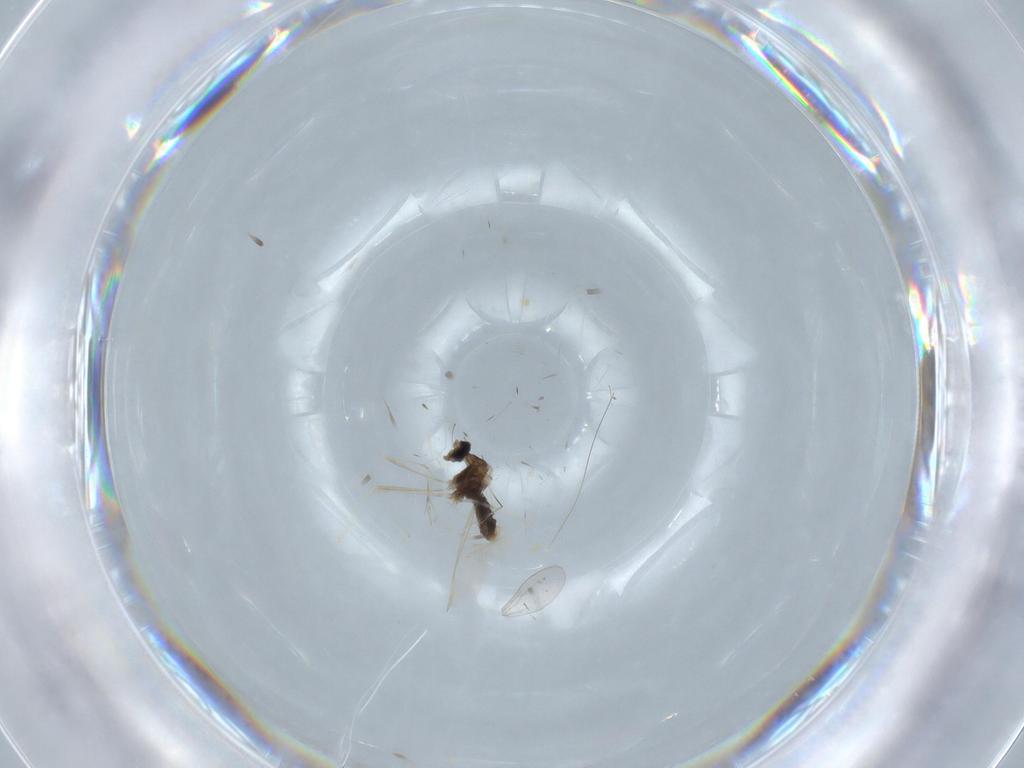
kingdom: Animalia
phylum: Arthropoda
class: Insecta
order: Diptera
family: Cecidomyiidae
